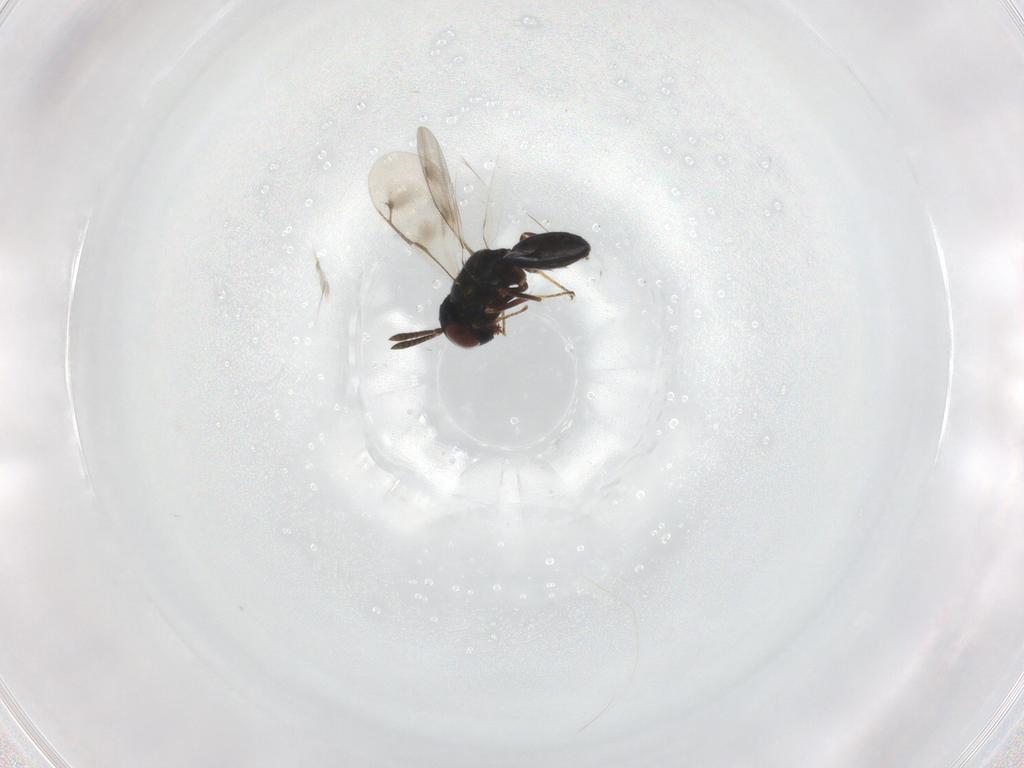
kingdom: Animalia
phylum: Arthropoda
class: Insecta
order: Hymenoptera
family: Pteromalidae
